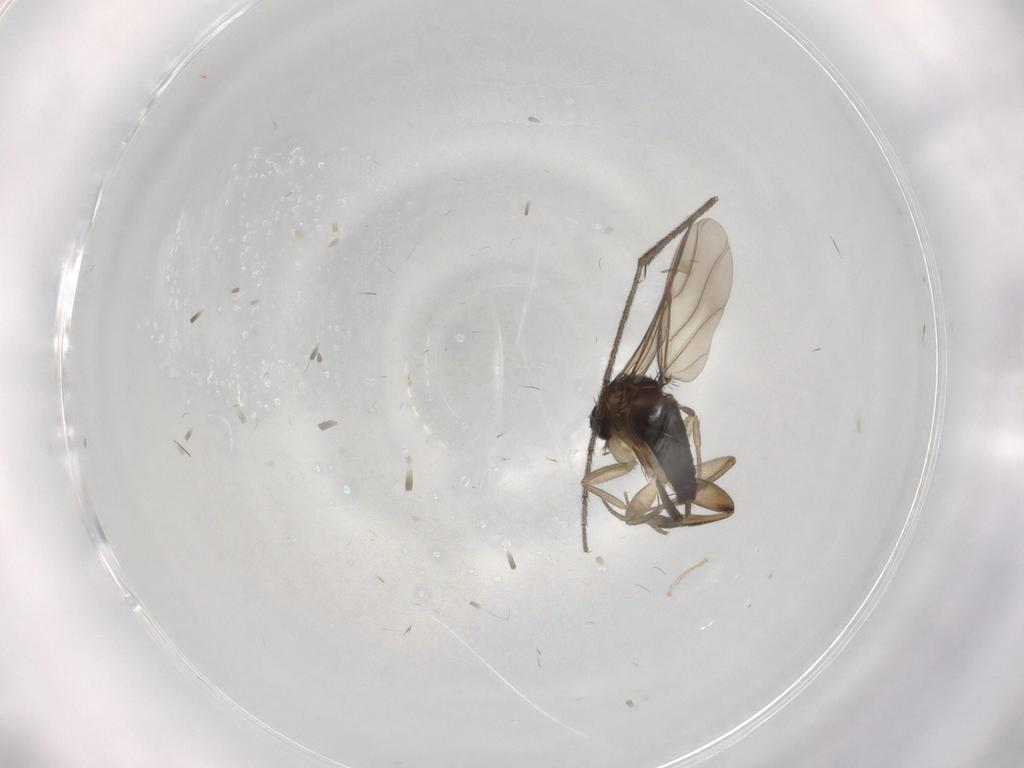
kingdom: Animalia
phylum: Arthropoda
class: Insecta
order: Diptera
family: Ditomyiidae
